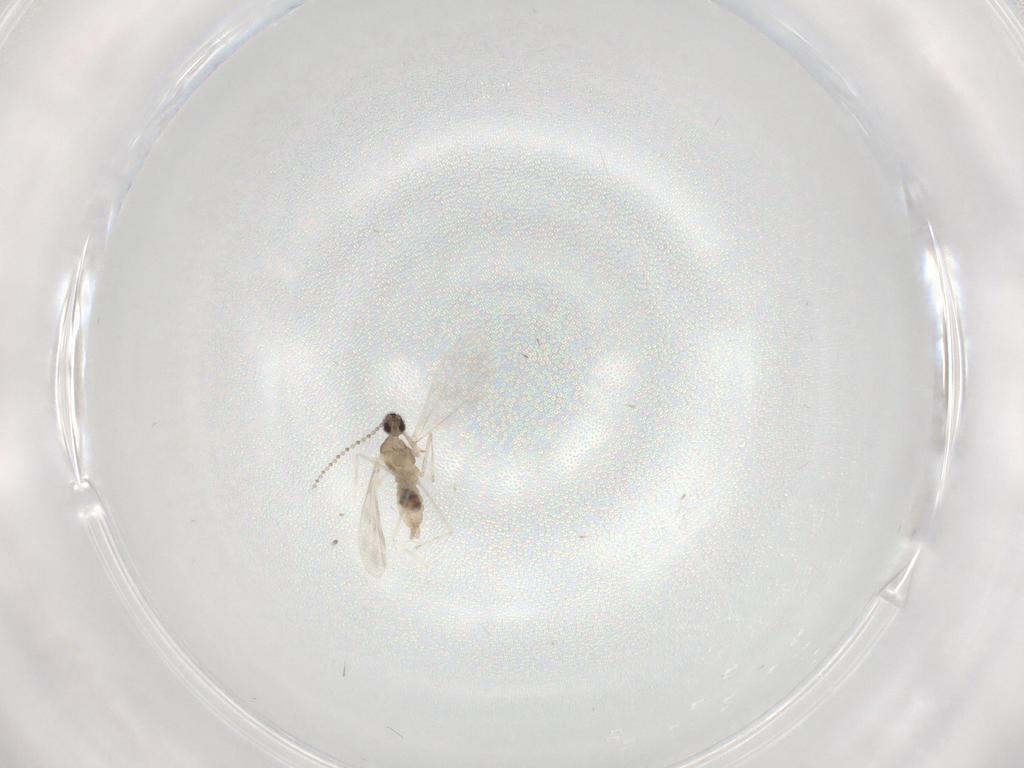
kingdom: Animalia
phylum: Arthropoda
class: Insecta
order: Diptera
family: Cecidomyiidae
